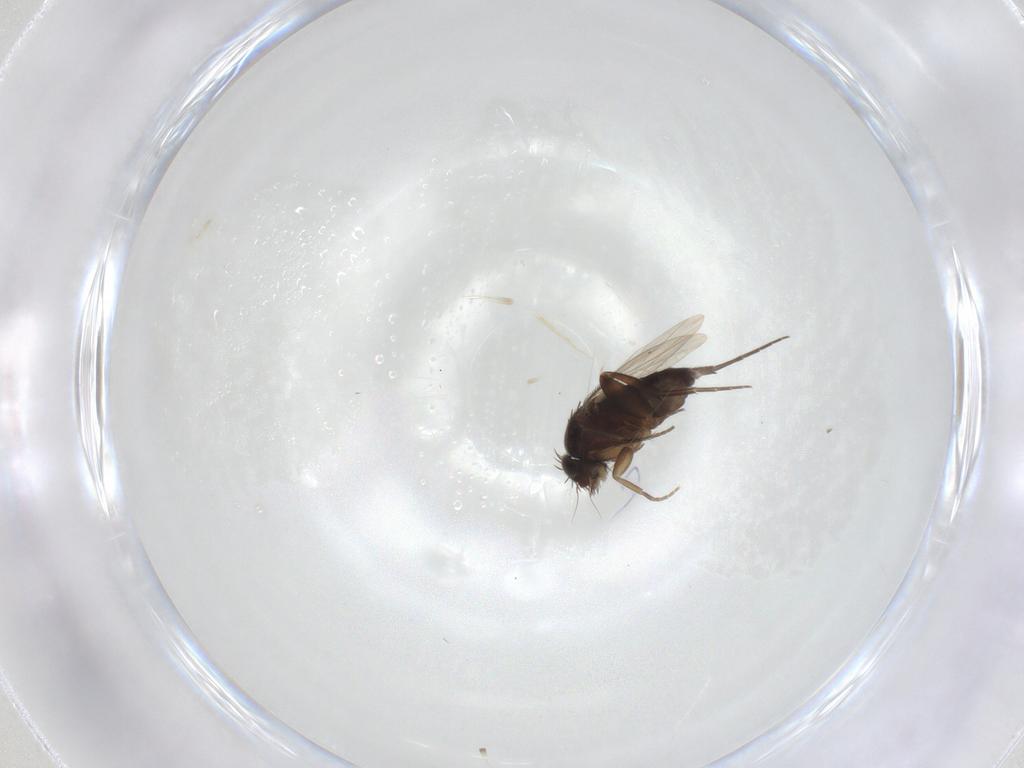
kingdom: Animalia
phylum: Arthropoda
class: Insecta
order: Diptera
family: Phoridae
